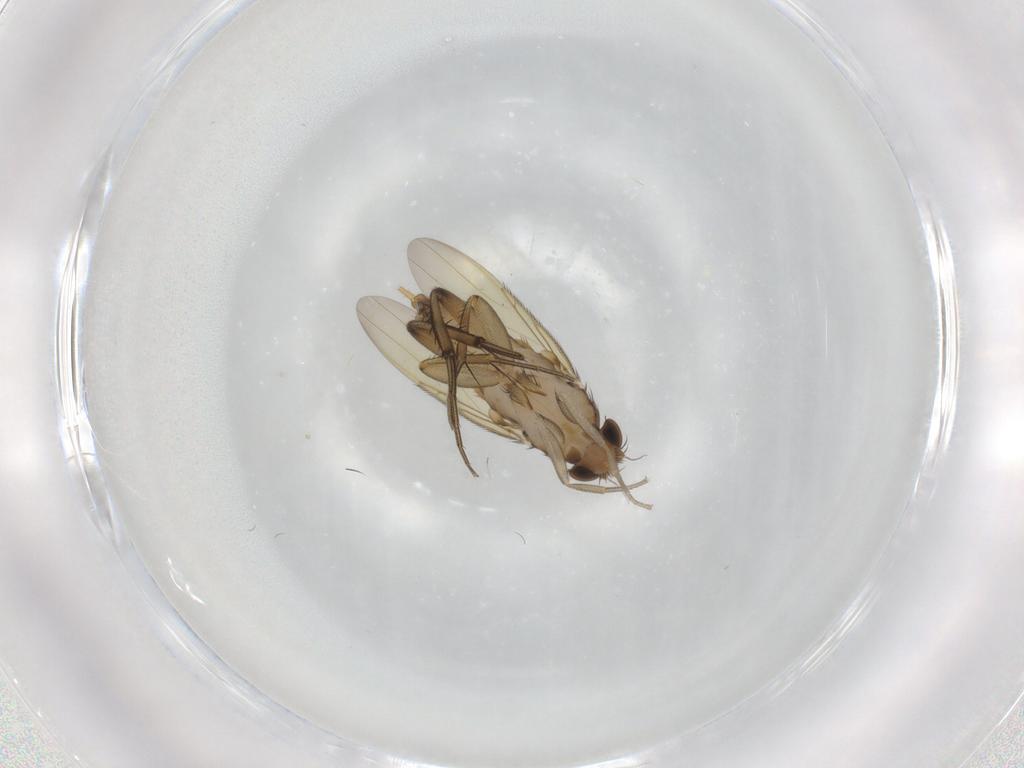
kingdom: Animalia
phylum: Arthropoda
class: Insecta
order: Diptera
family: Phoridae
